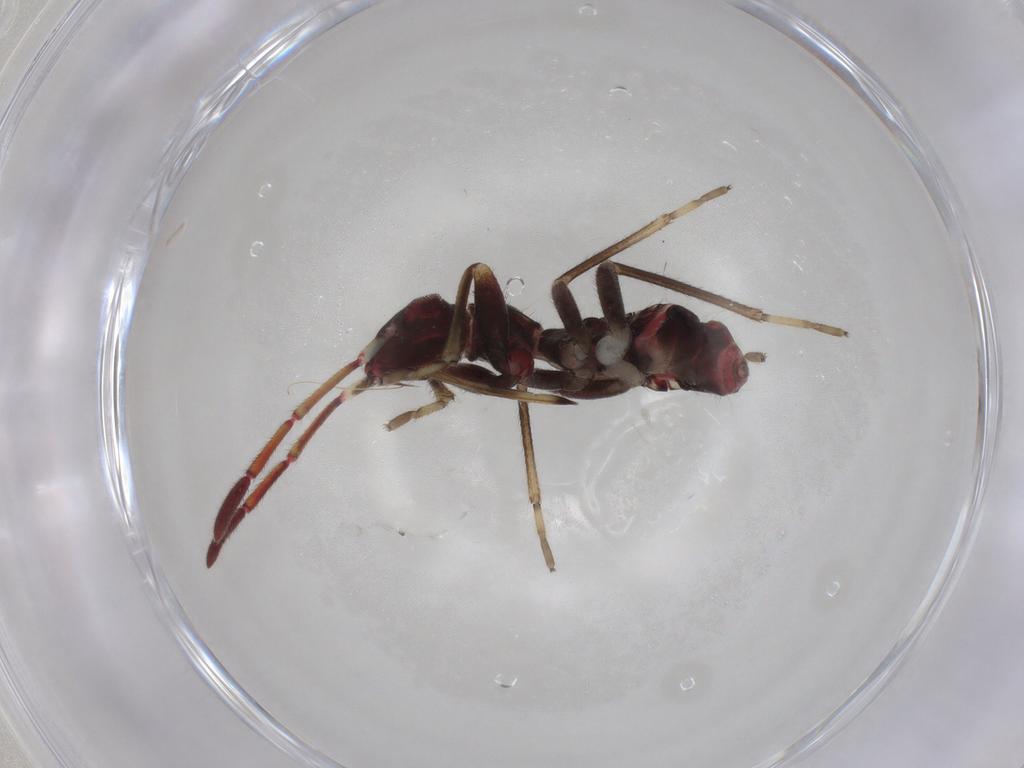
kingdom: Animalia
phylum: Arthropoda
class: Insecta
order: Hemiptera
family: Rhyparochromidae
